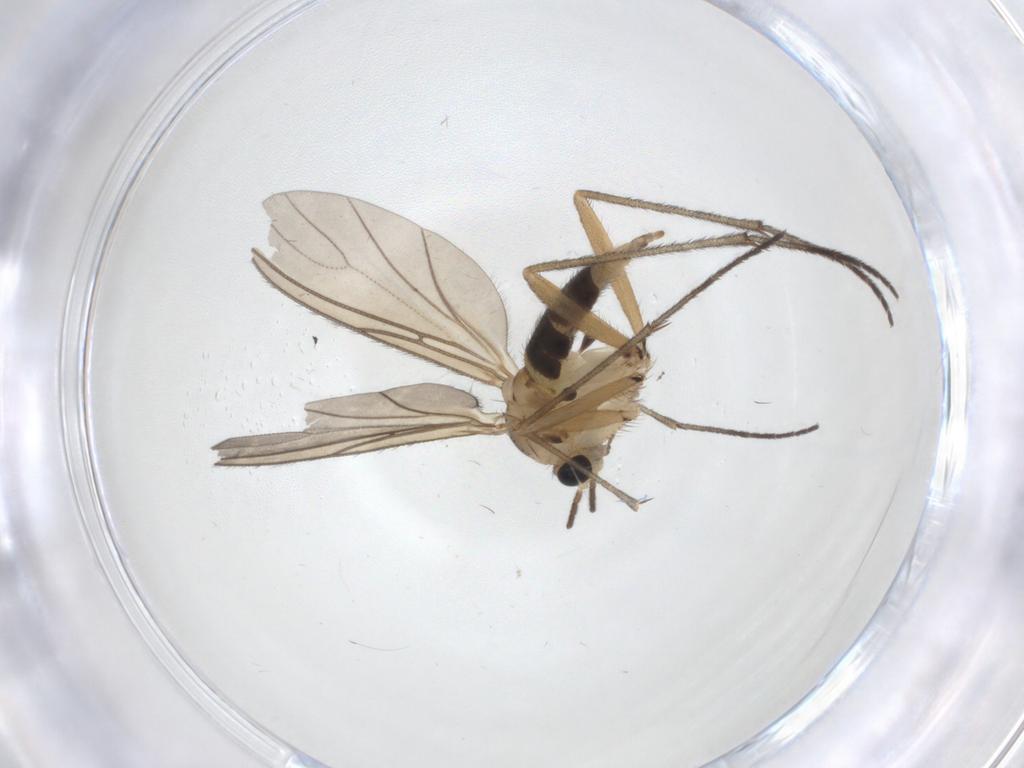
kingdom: Animalia
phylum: Arthropoda
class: Insecta
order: Diptera
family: Sciaridae
